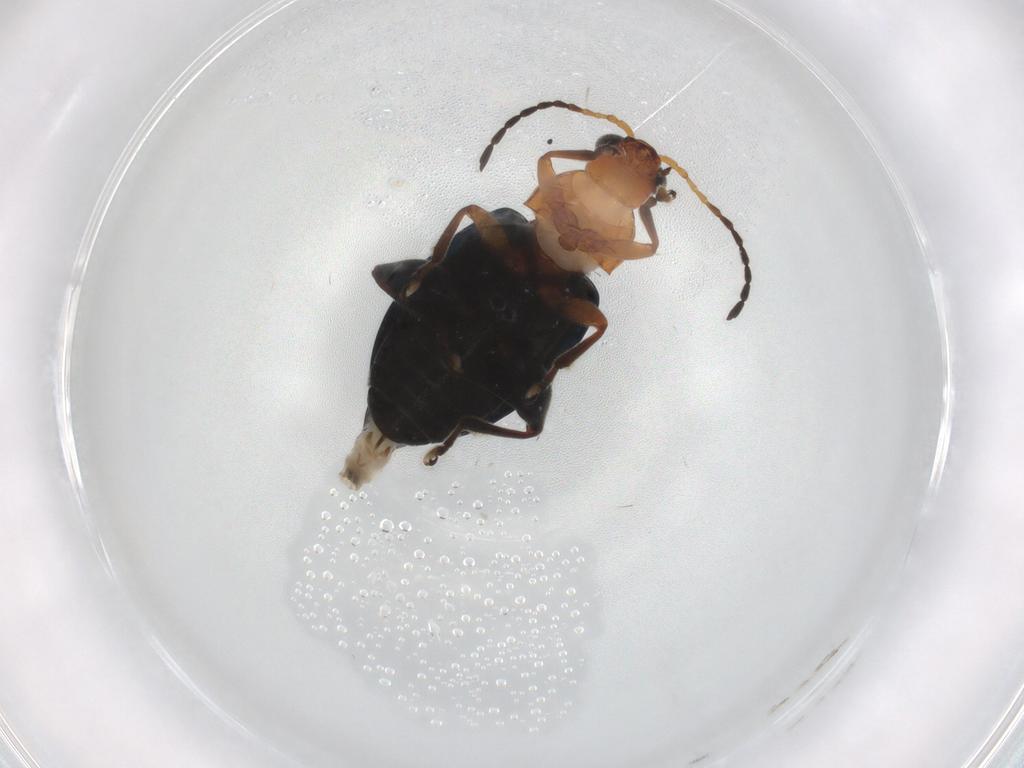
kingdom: Animalia
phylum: Arthropoda
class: Insecta
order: Coleoptera
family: Chrysomelidae
